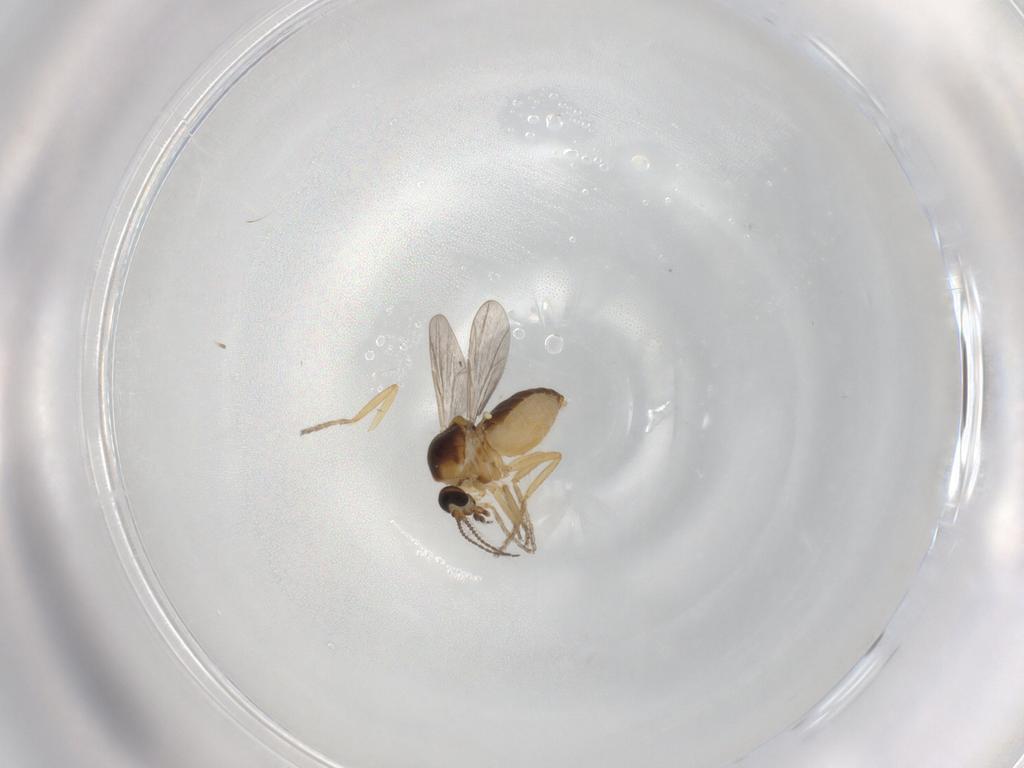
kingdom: Animalia
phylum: Arthropoda
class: Insecta
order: Diptera
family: Ceratopogonidae
